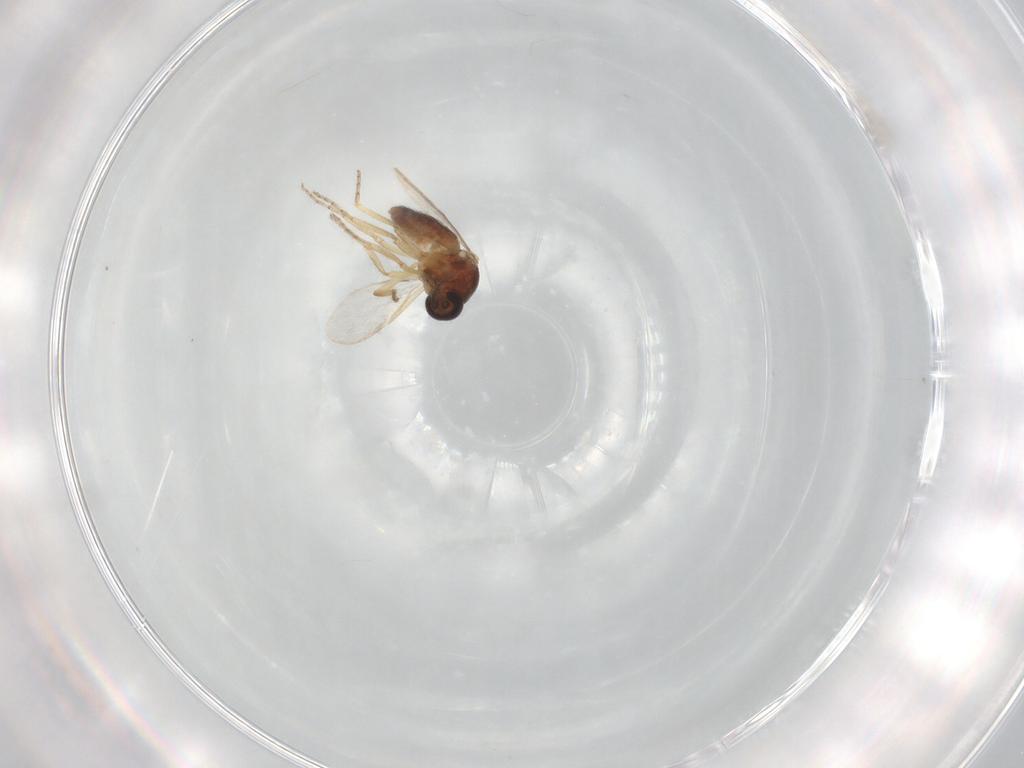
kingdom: Animalia
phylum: Arthropoda
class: Insecta
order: Diptera
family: Ceratopogonidae
